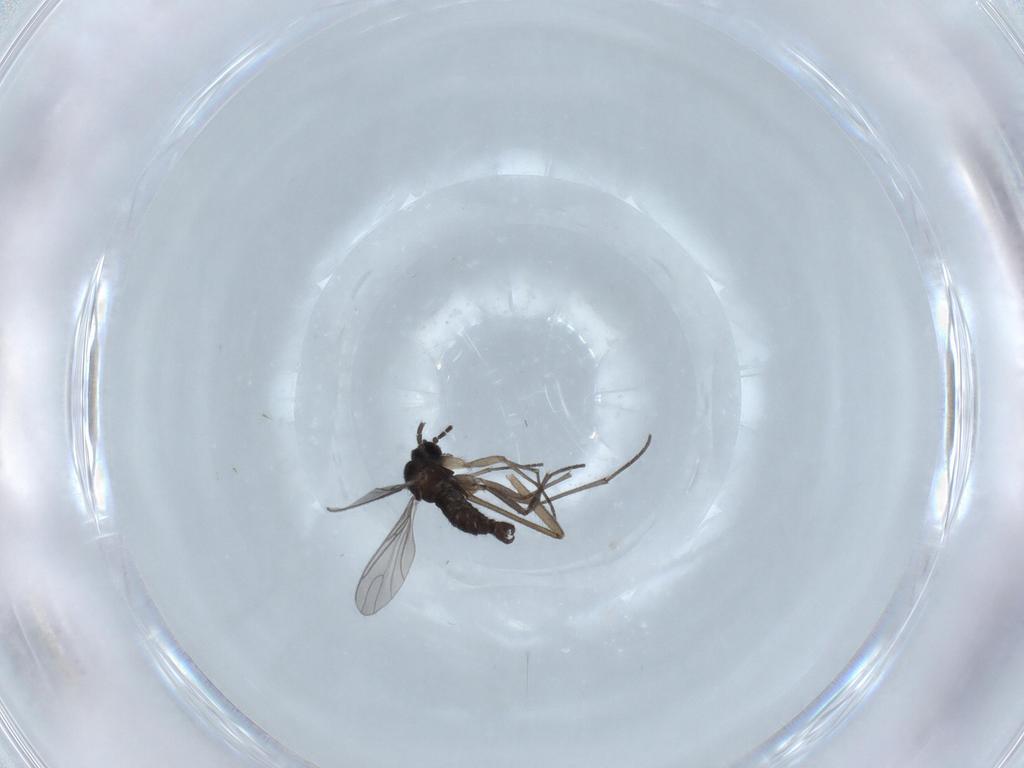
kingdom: Animalia
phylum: Arthropoda
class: Insecta
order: Diptera
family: Sciaridae
